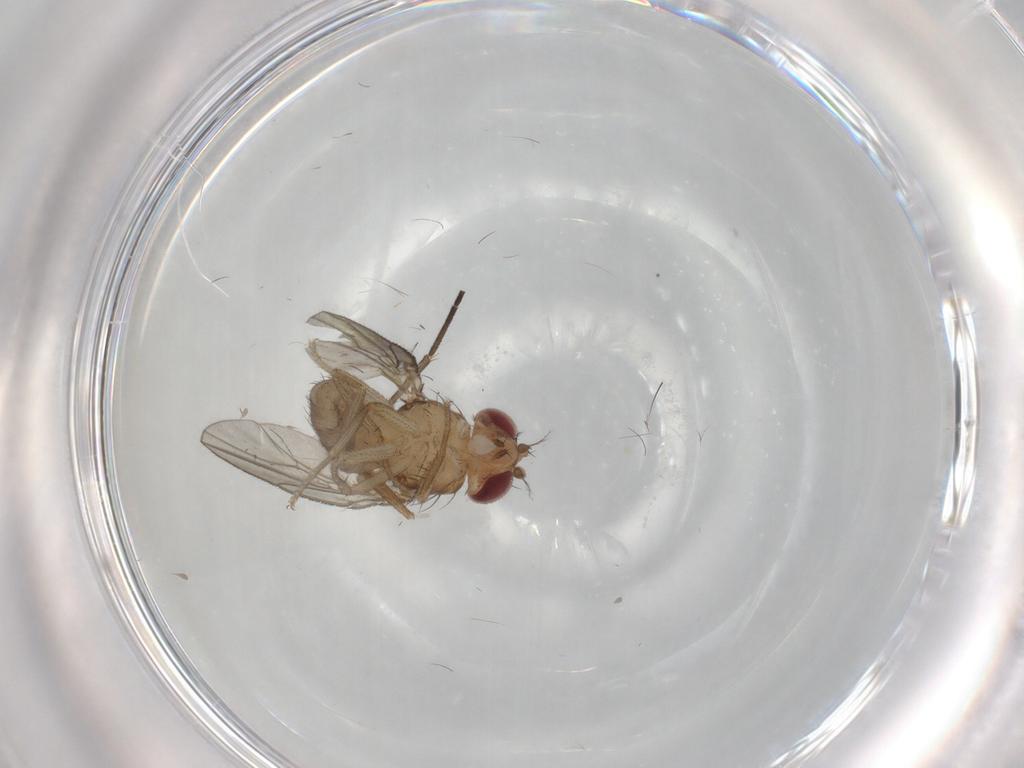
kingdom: Animalia
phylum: Arthropoda
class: Insecta
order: Diptera
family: Drosophilidae
